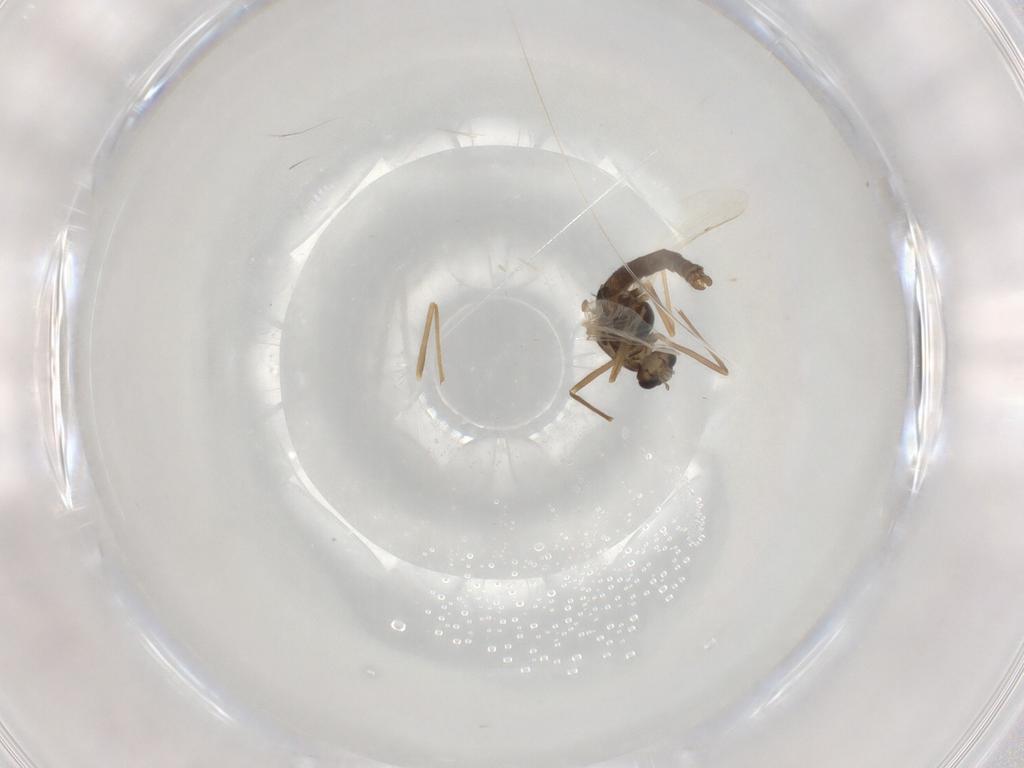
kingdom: Animalia
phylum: Arthropoda
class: Insecta
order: Diptera
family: Chironomidae
